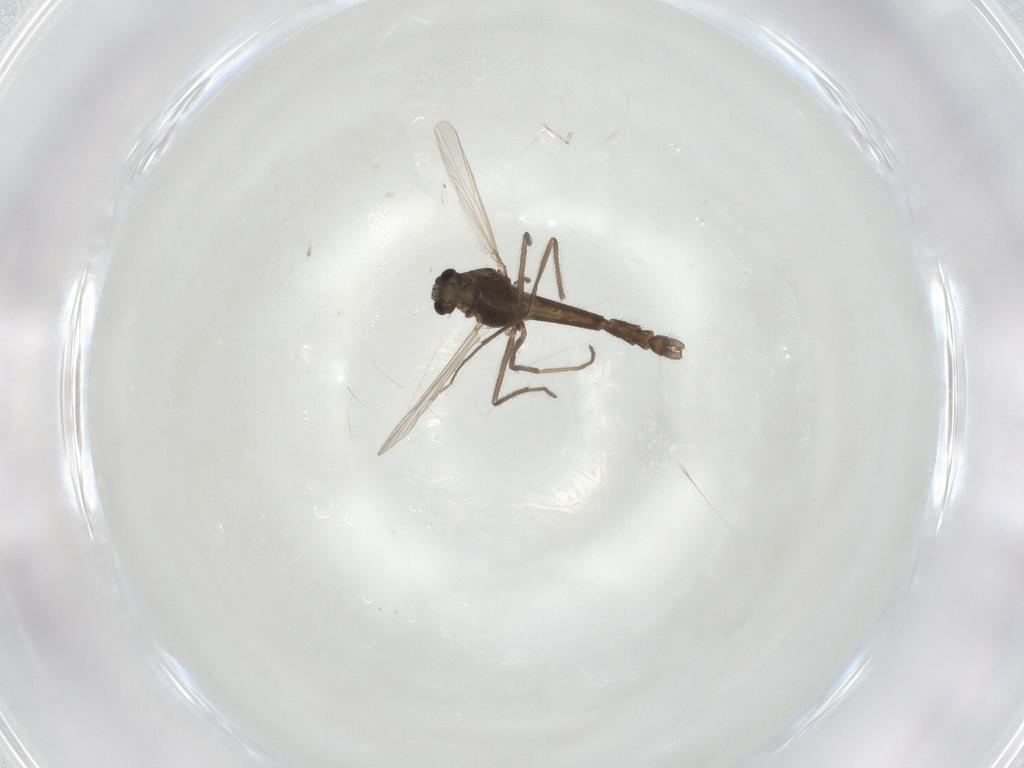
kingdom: Animalia
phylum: Arthropoda
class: Insecta
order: Diptera
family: Chironomidae
